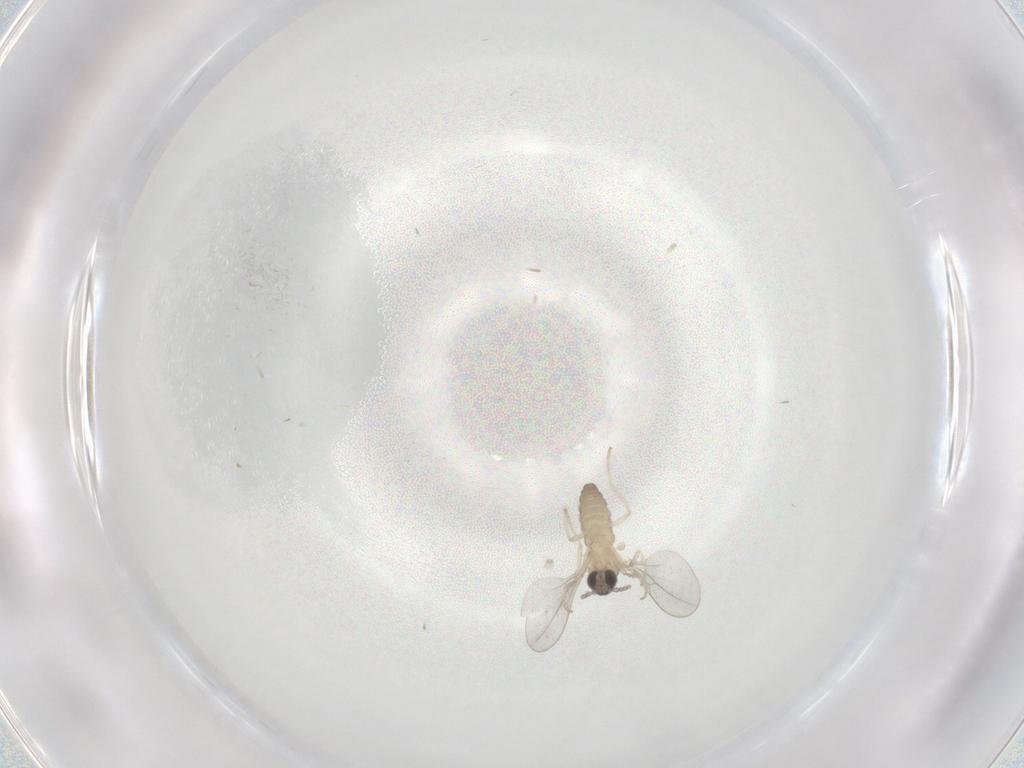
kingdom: Animalia
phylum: Arthropoda
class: Insecta
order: Diptera
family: Cecidomyiidae
